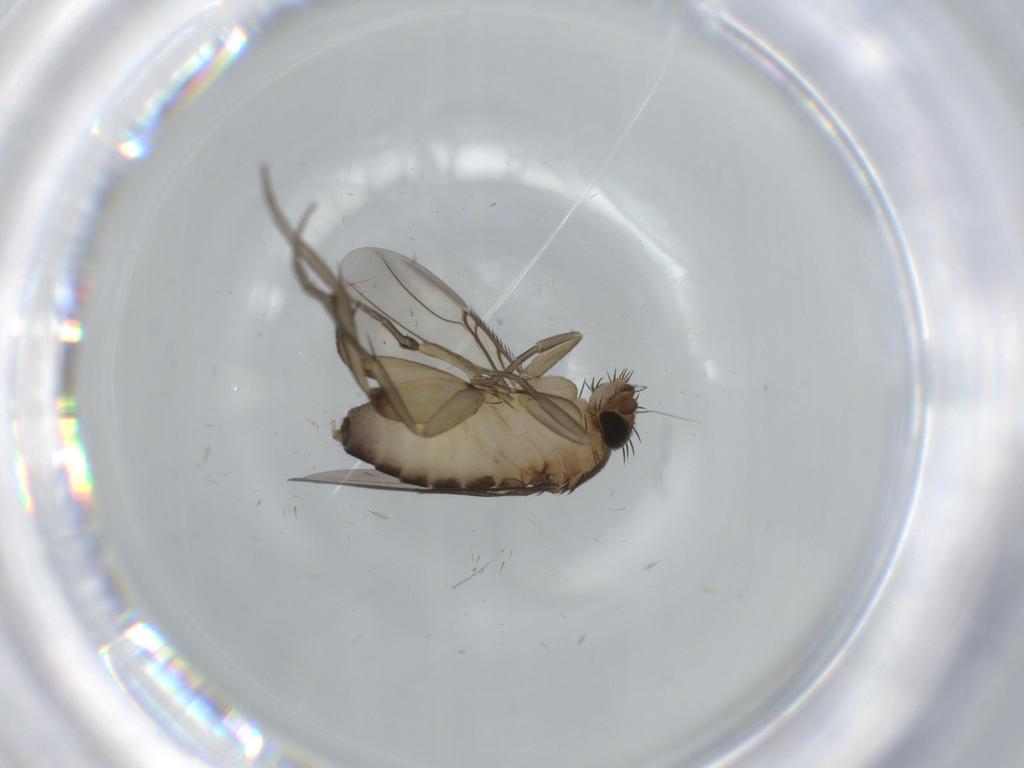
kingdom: Animalia
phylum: Arthropoda
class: Insecta
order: Diptera
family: Phoridae
